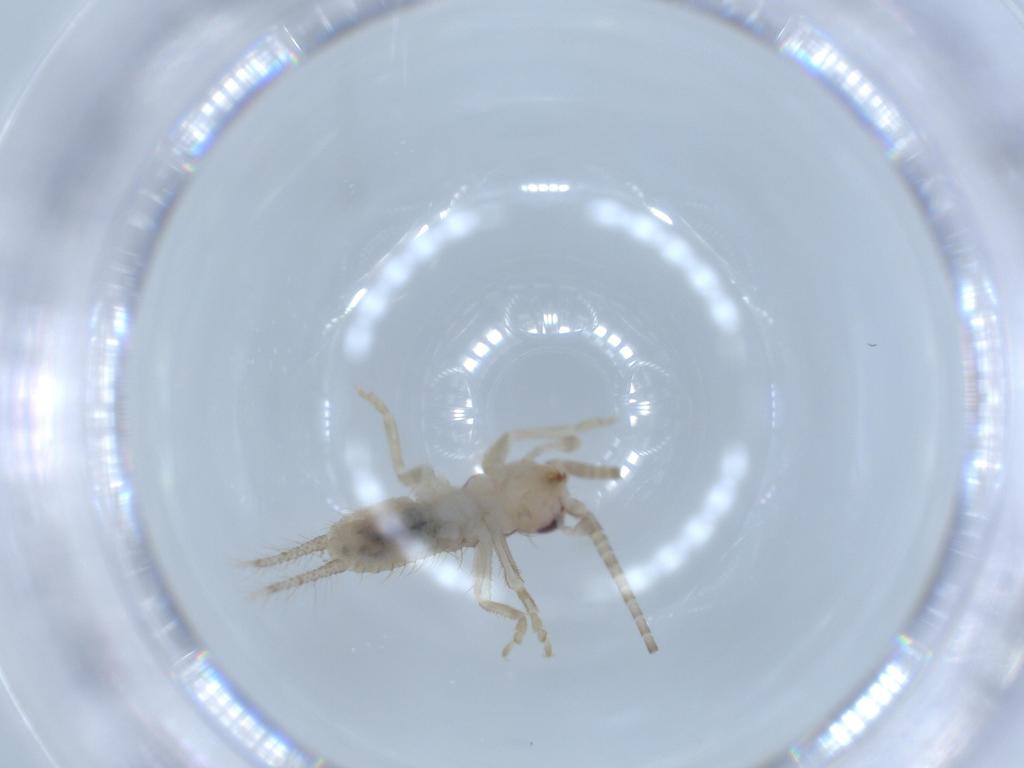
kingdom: Animalia
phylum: Arthropoda
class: Insecta
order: Orthoptera
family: Gryllidae
